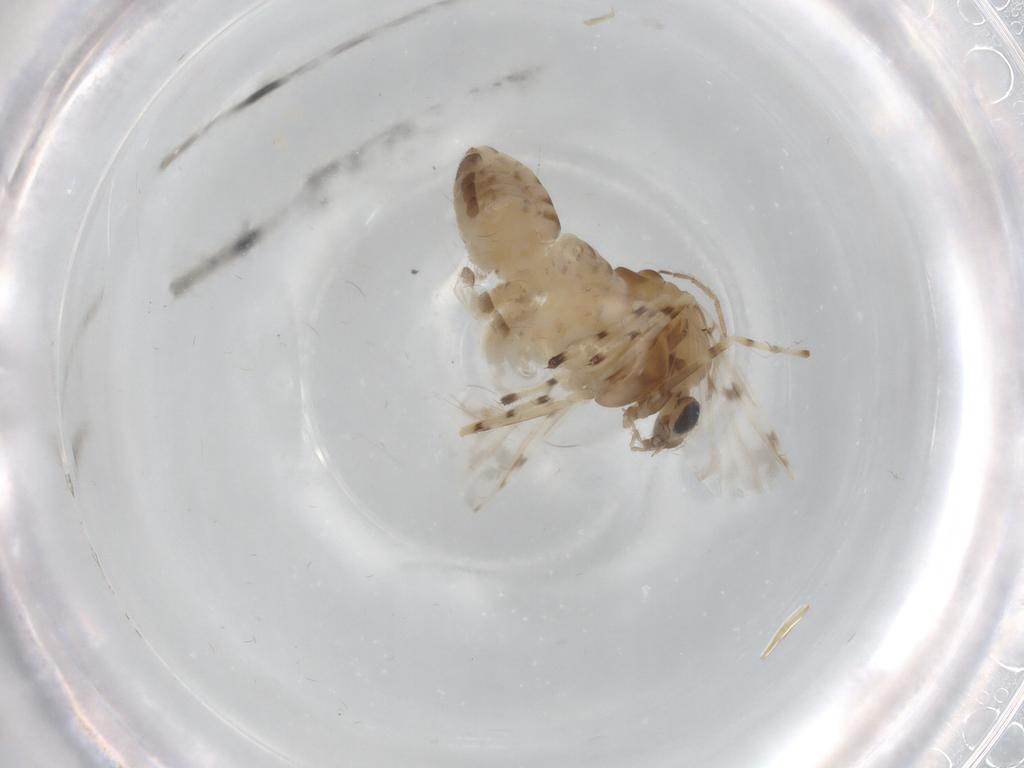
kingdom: Animalia
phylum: Arthropoda
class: Insecta
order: Diptera
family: Chironomidae
